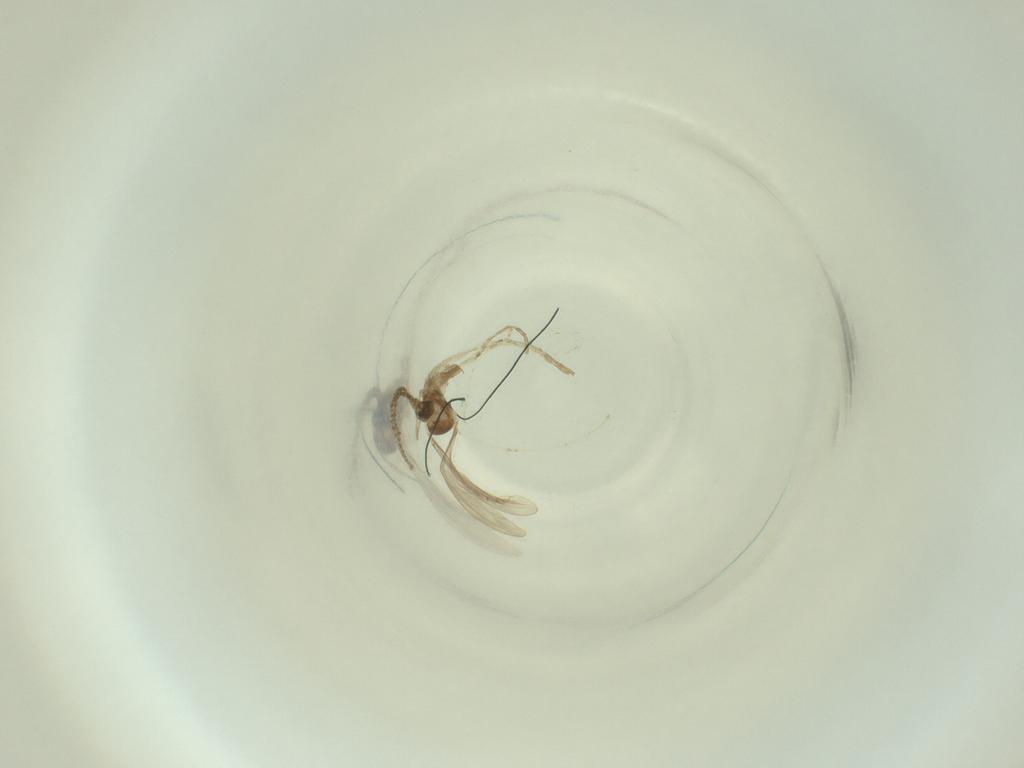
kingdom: Animalia
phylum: Arthropoda
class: Insecta
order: Diptera
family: Cecidomyiidae
